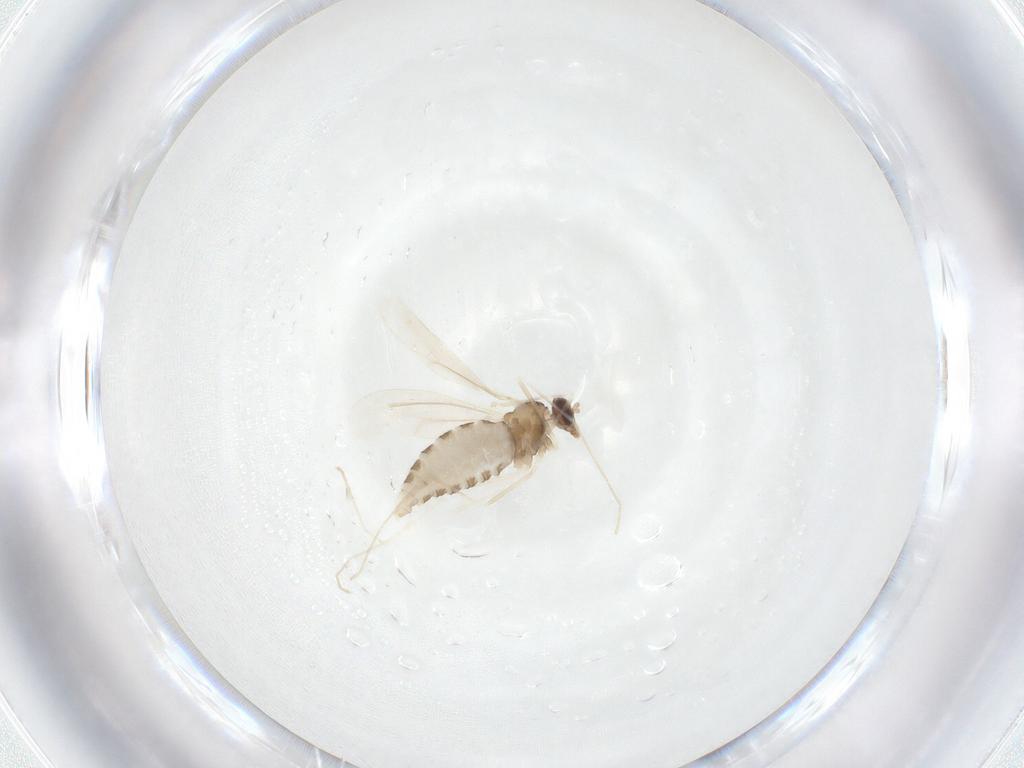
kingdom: Animalia
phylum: Arthropoda
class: Insecta
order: Diptera
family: Cecidomyiidae
